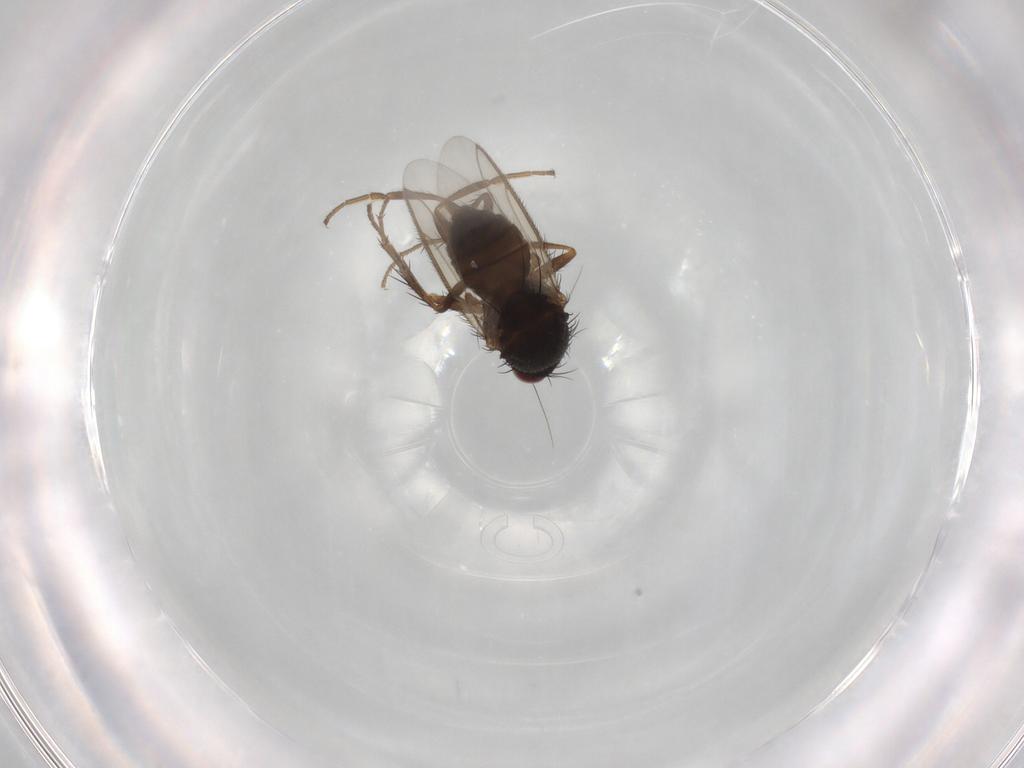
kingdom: Animalia
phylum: Arthropoda
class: Insecta
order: Diptera
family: Sphaeroceridae
